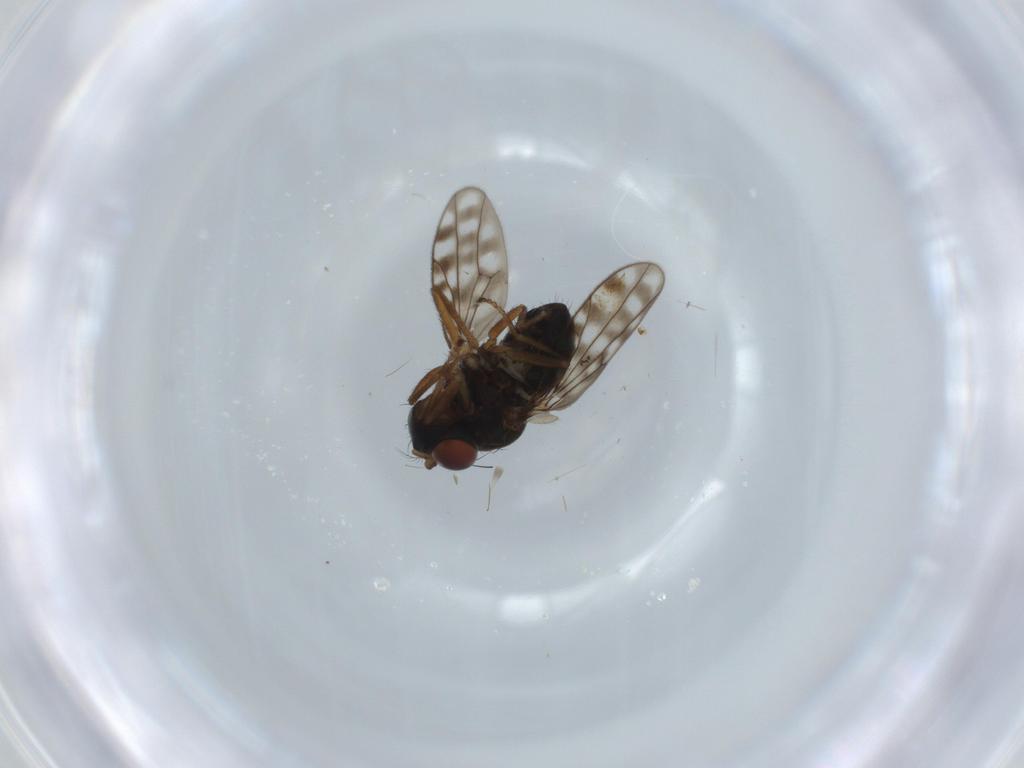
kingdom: Animalia
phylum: Arthropoda
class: Insecta
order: Diptera
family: Ephydridae
